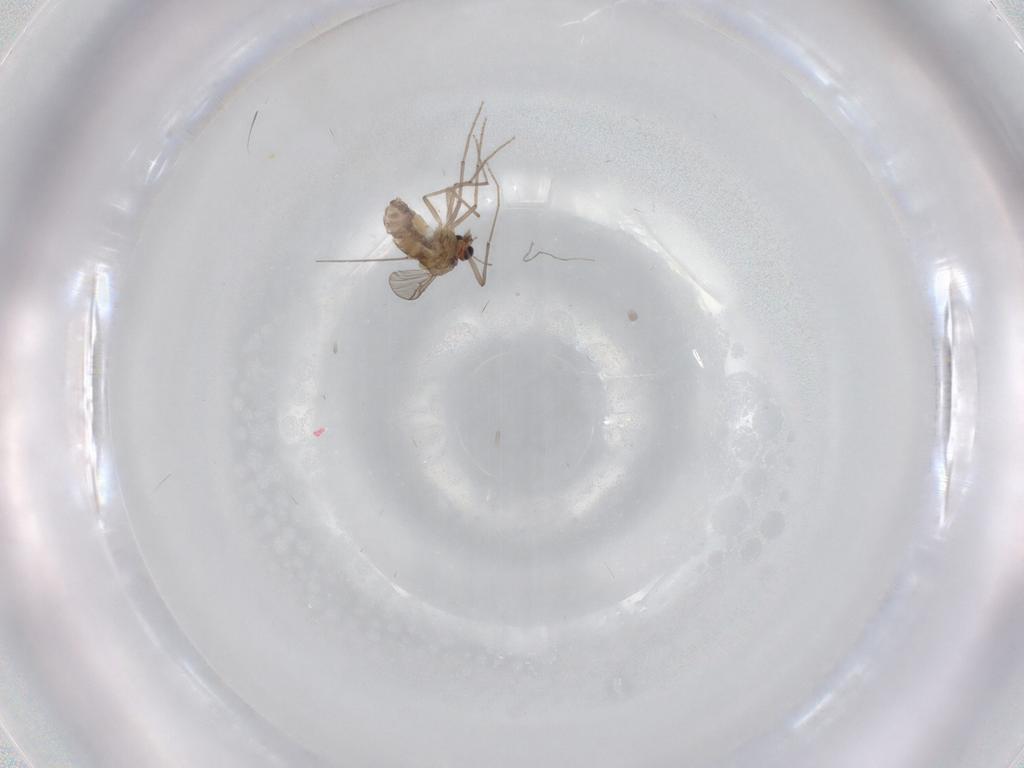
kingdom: Animalia
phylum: Arthropoda
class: Insecta
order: Diptera
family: Chironomidae
